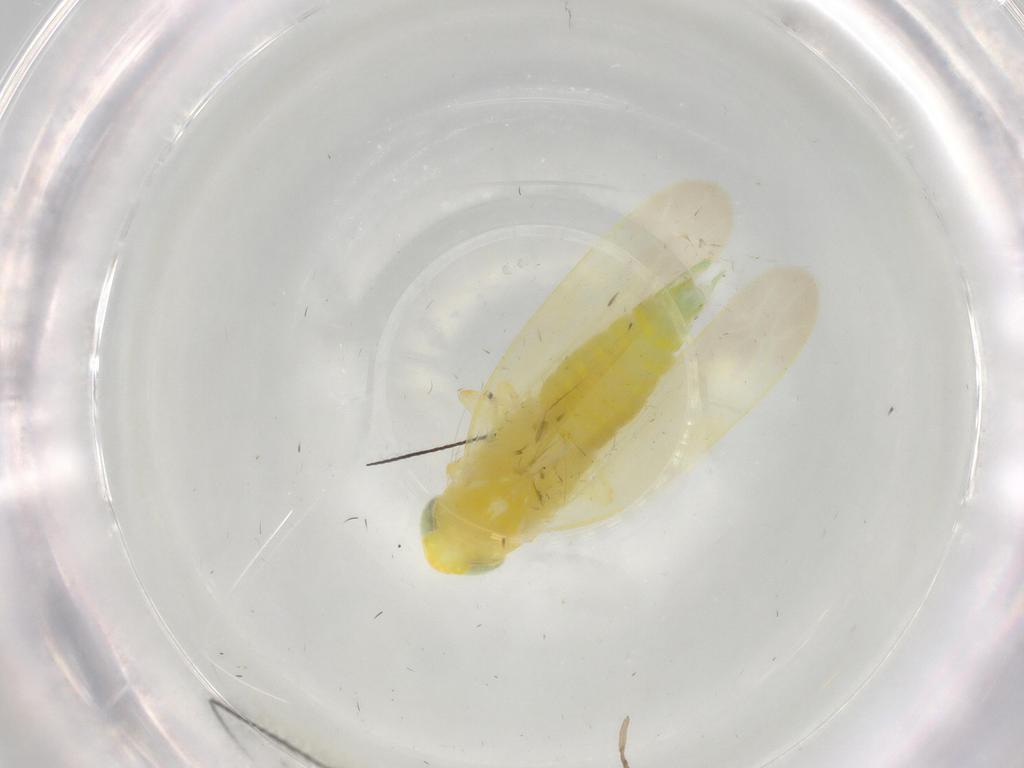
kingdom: Animalia
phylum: Arthropoda
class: Insecta
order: Hemiptera
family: Cicadellidae
